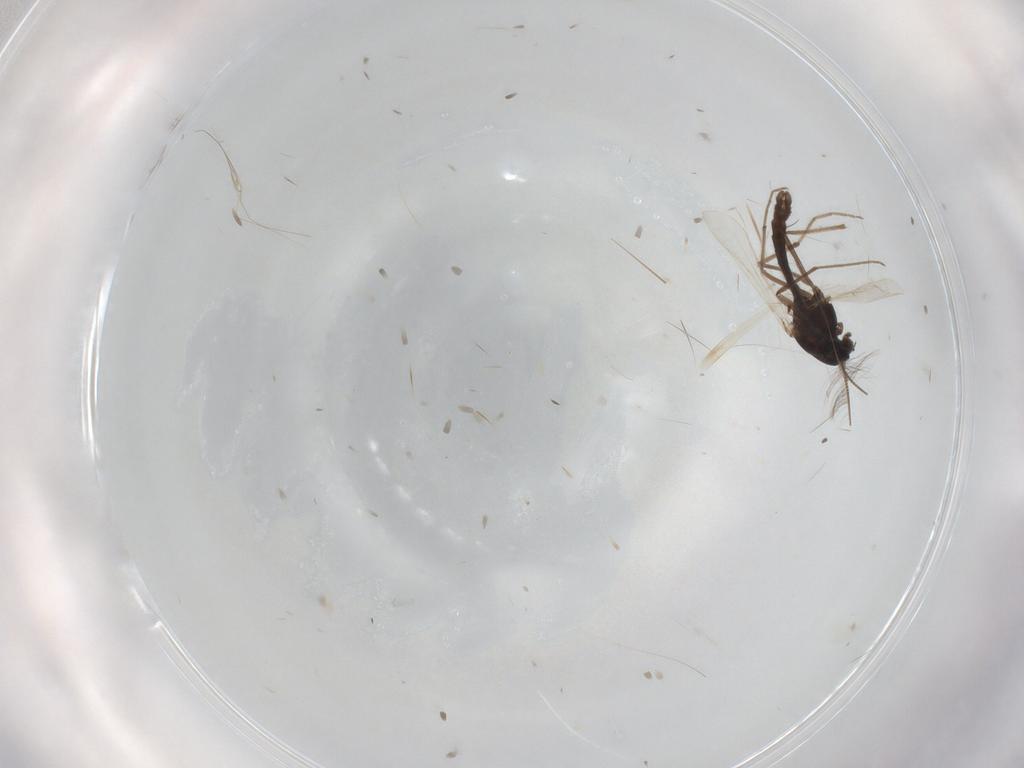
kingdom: Animalia
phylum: Arthropoda
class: Insecta
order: Diptera
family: Chironomidae
